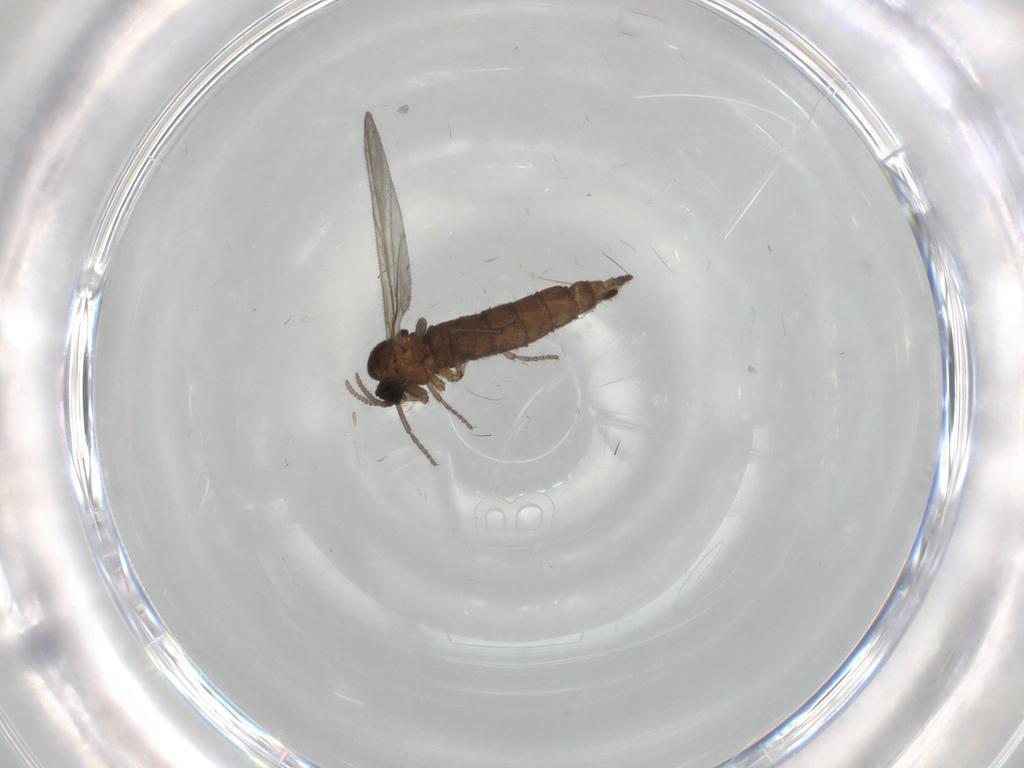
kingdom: Animalia
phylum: Arthropoda
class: Insecta
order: Diptera
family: Sciaridae
